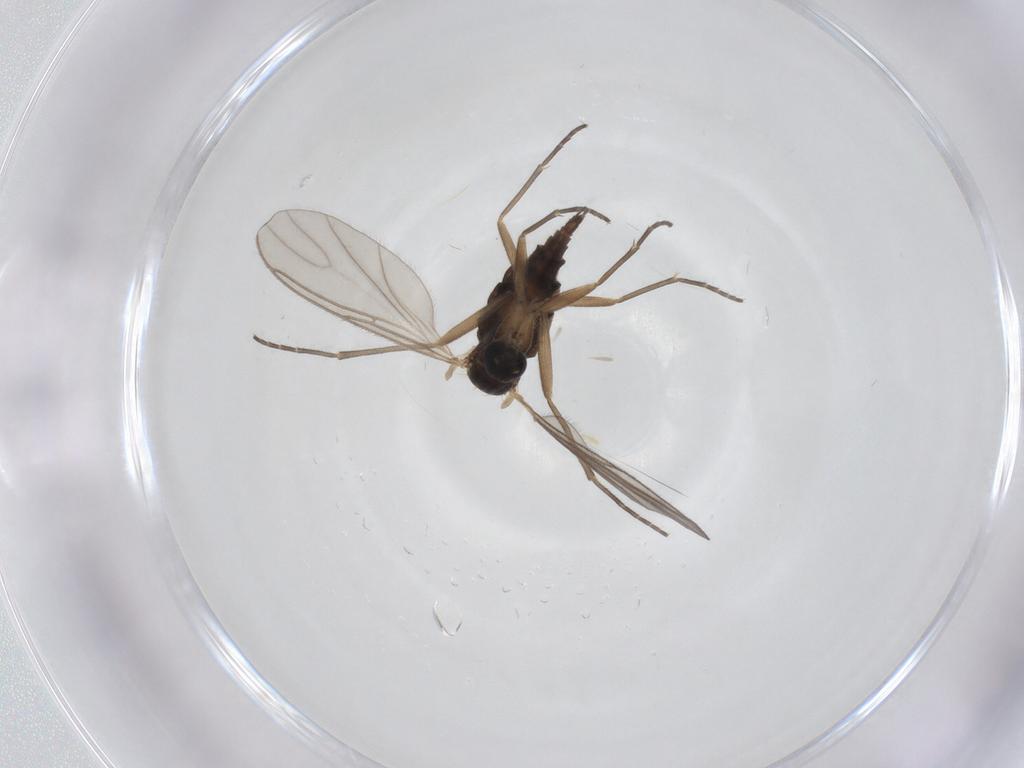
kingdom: Animalia
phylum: Arthropoda
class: Insecta
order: Diptera
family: Sciaridae
